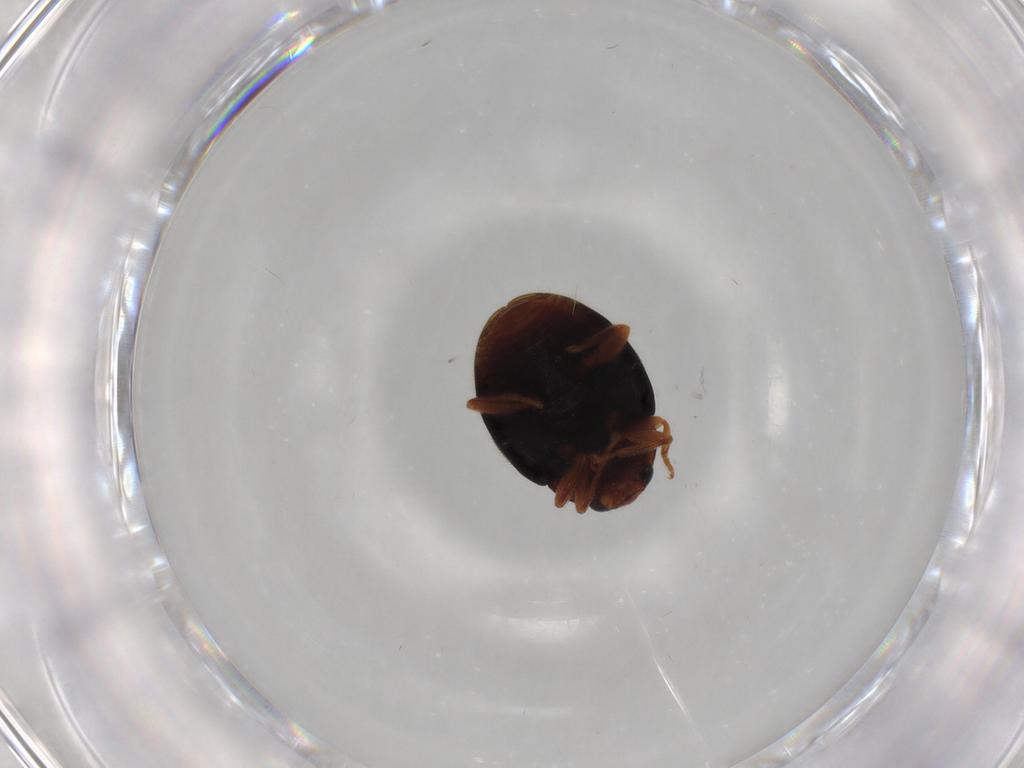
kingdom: Animalia
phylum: Arthropoda
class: Insecta
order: Coleoptera
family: Coccinellidae
